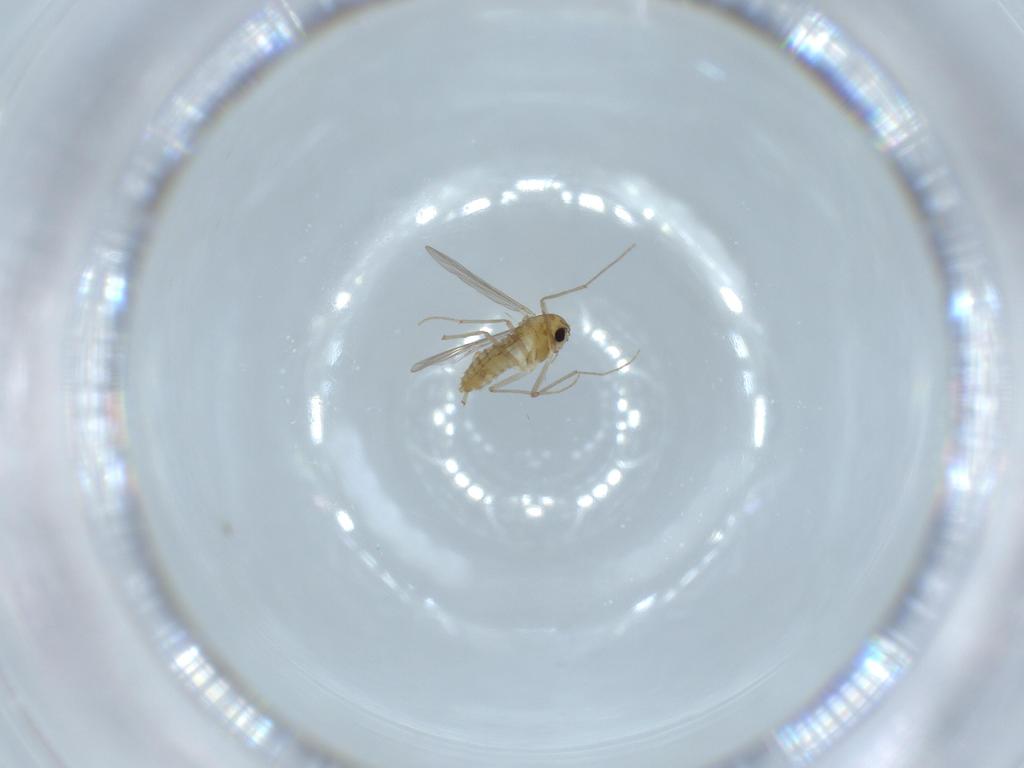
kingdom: Animalia
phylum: Arthropoda
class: Insecta
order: Diptera
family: Chironomidae
